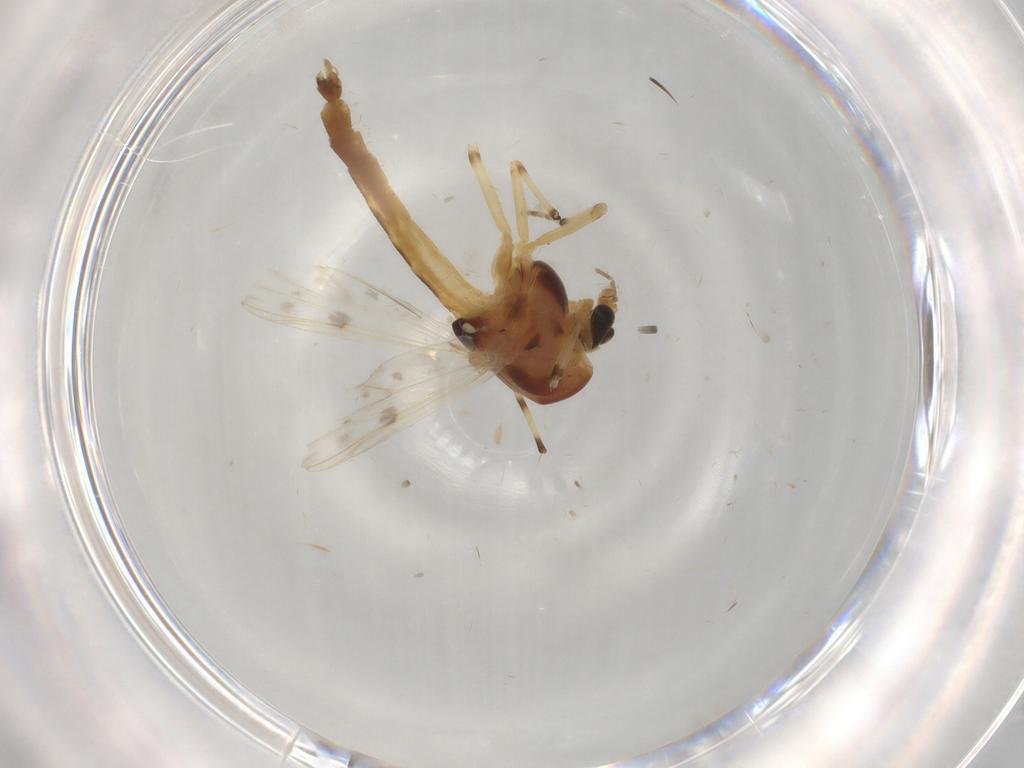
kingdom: Animalia
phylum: Arthropoda
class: Insecta
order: Diptera
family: Chironomidae
